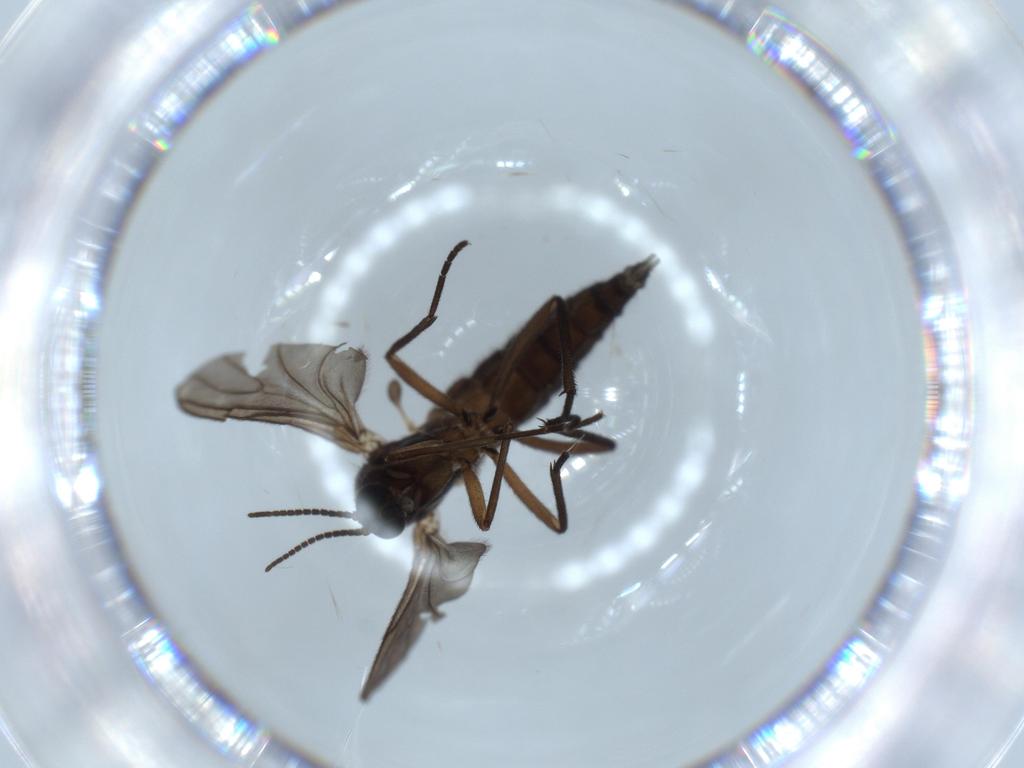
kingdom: Animalia
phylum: Arthropoda
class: Insecta
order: Diptera
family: Sciaridae
